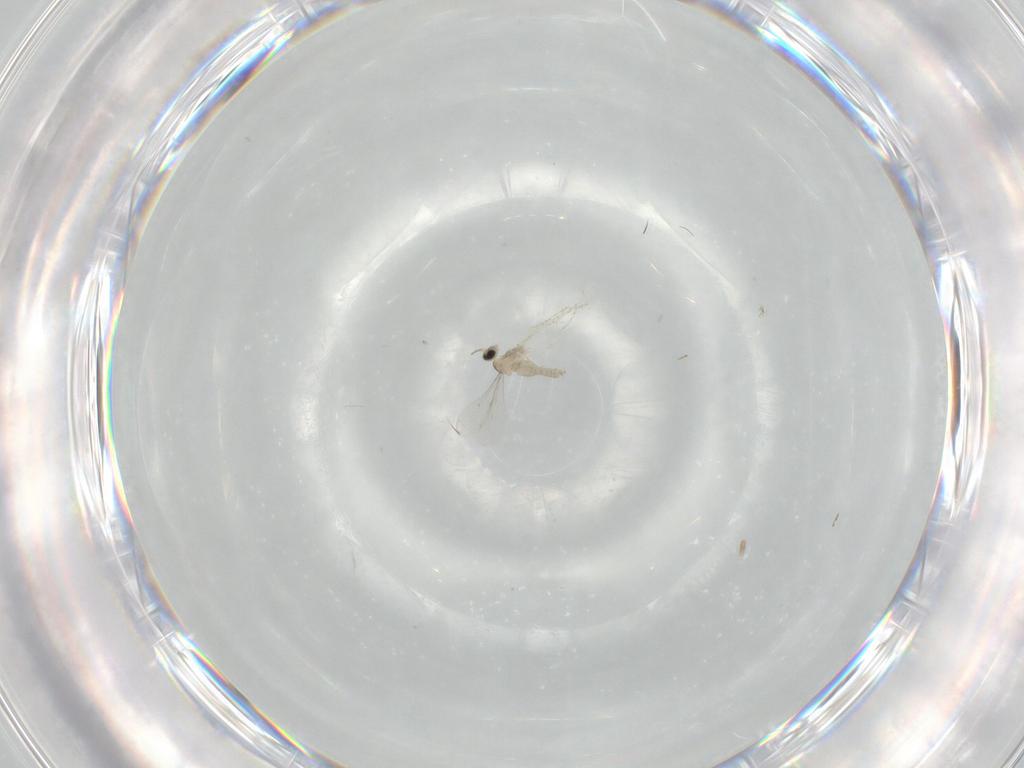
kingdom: Animalia
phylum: Arthropoda
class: Insecta
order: Diptera
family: Cecidomyiidae
